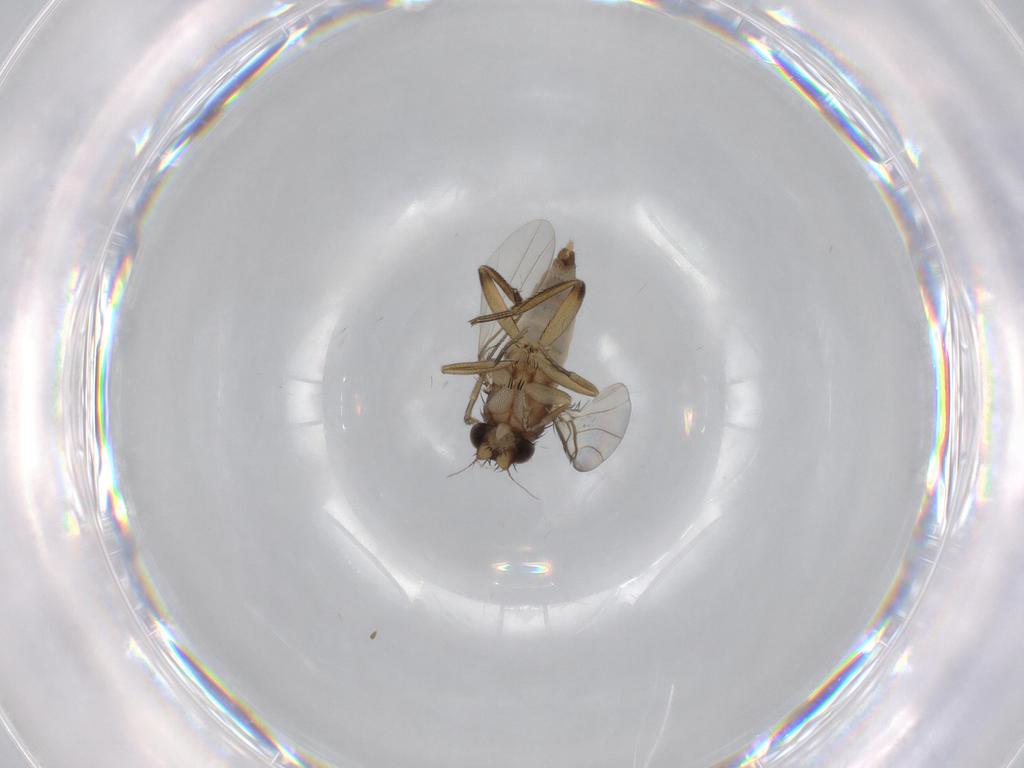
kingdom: Animalia
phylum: Arthropoda
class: Insecta
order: Diptera
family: Phoridae
